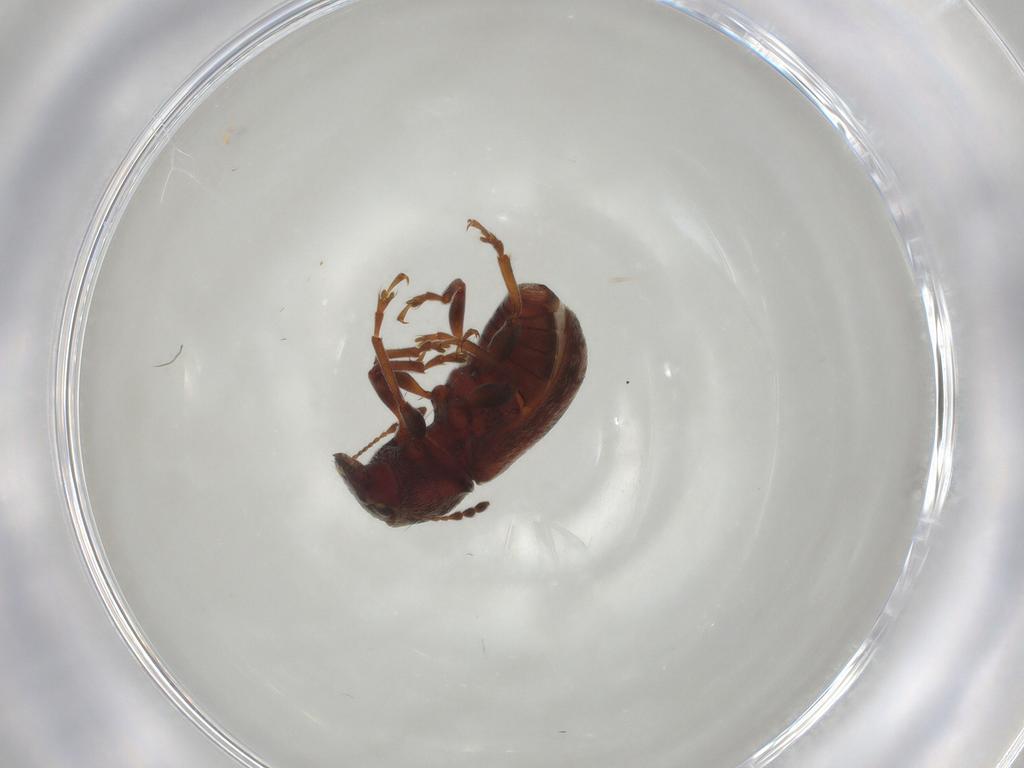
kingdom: Animalia
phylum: Arthropoda
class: Insecta
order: Coleoptera
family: Anthribidae
